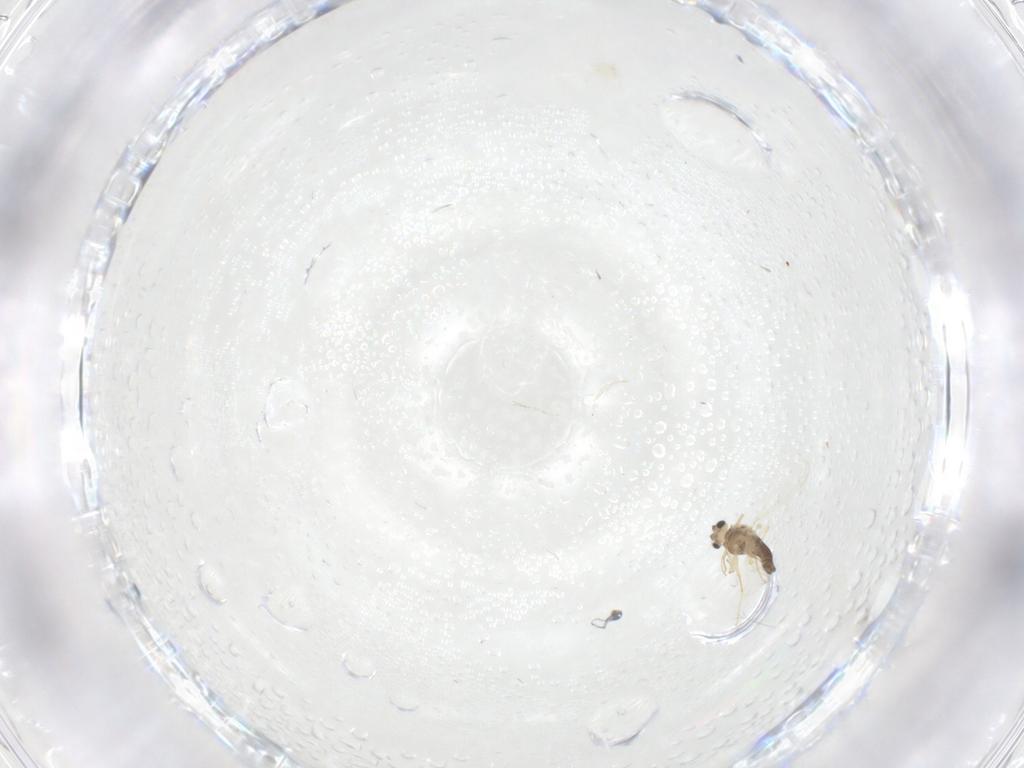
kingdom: Animalia
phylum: Arthropoda
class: Insecta
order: Diptera
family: Chironomidae
